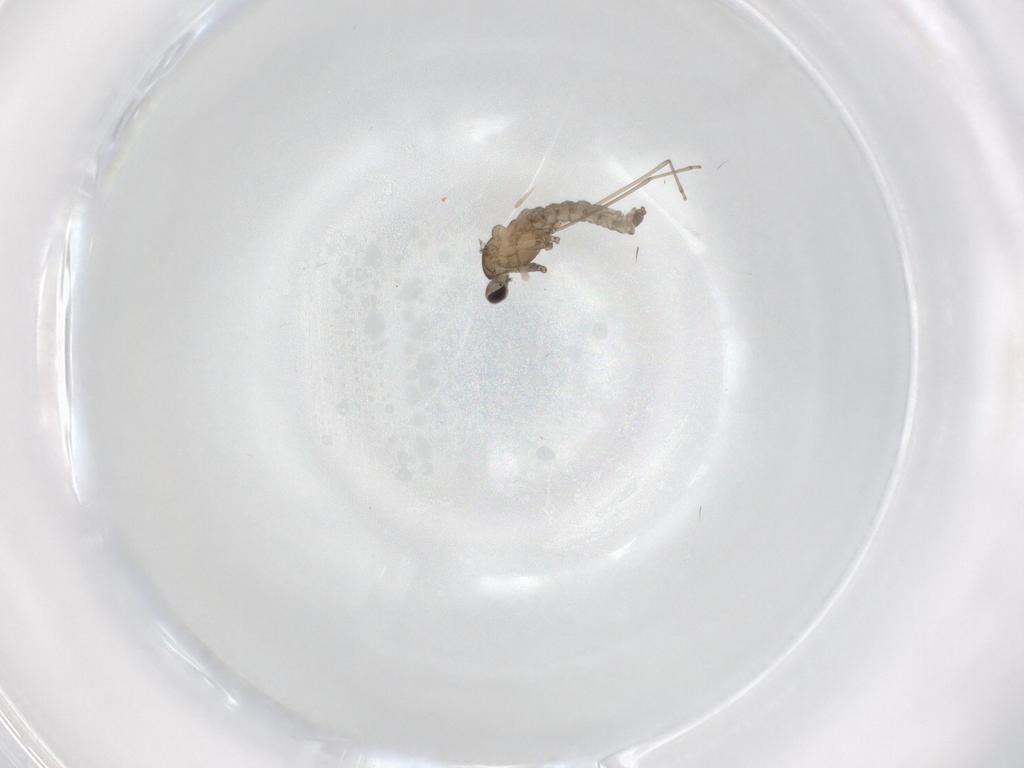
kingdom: Animalia
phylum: Arthropoda
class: Insecta
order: Diptera
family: Cecidomyiidae
